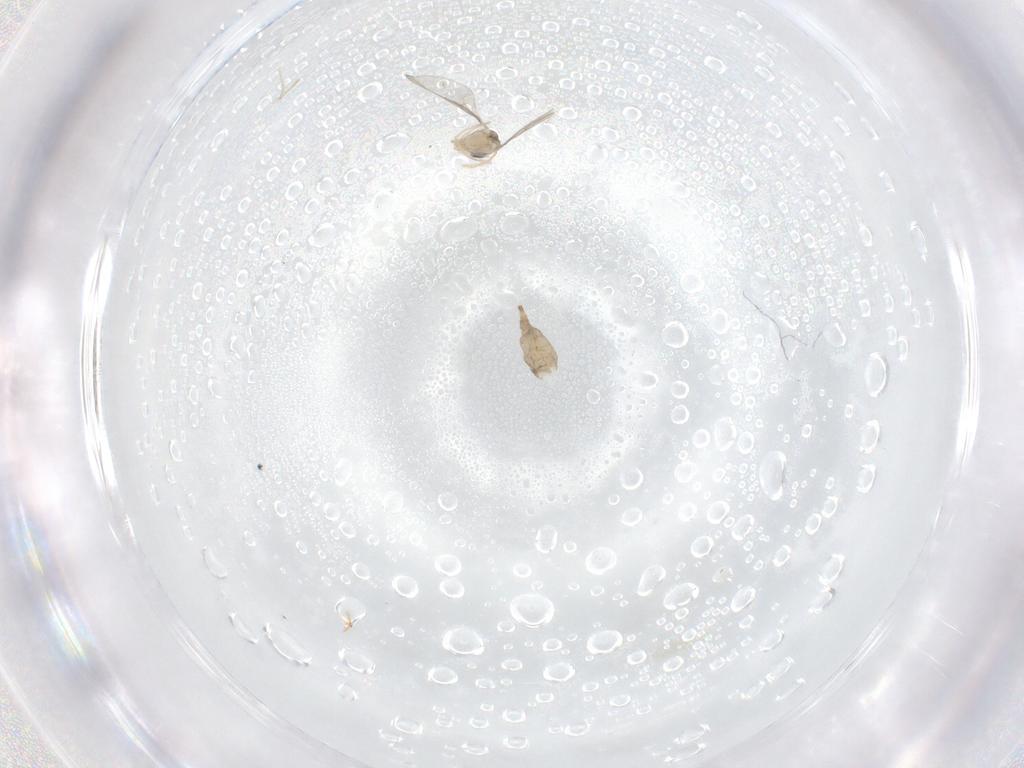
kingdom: Animalia
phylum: Arthropoda
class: Insecta
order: Diptera
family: Cecidomyiidae
